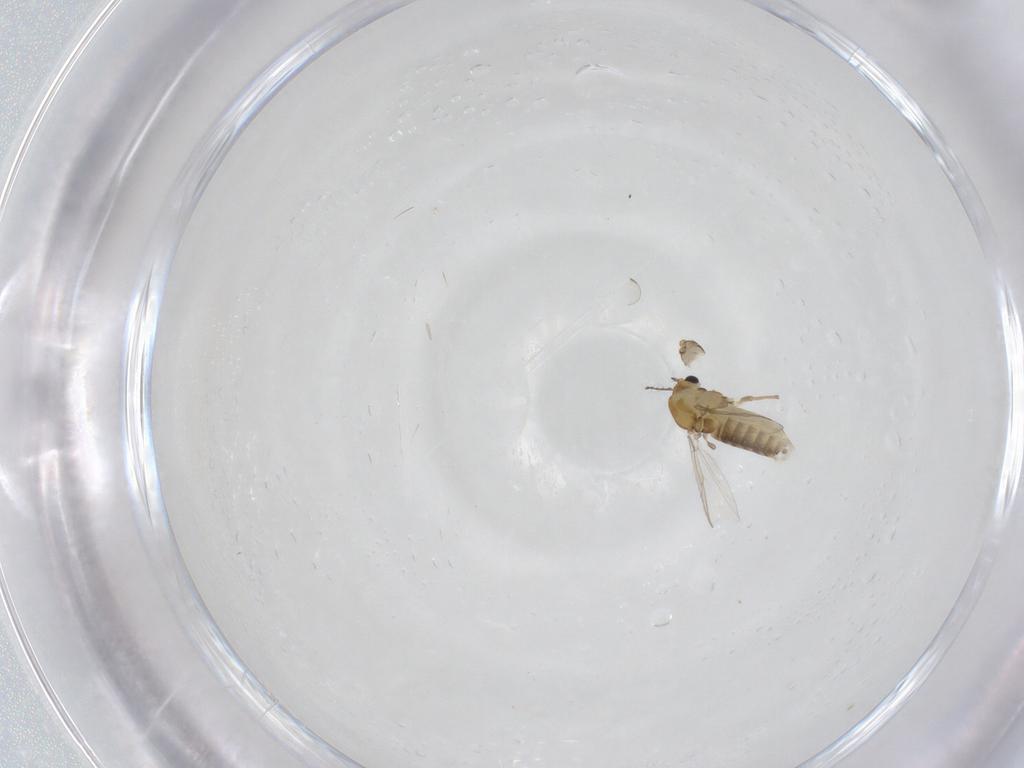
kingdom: Animalia
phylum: Arthropoda
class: Insecta
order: Diptera
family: Chironomidae
